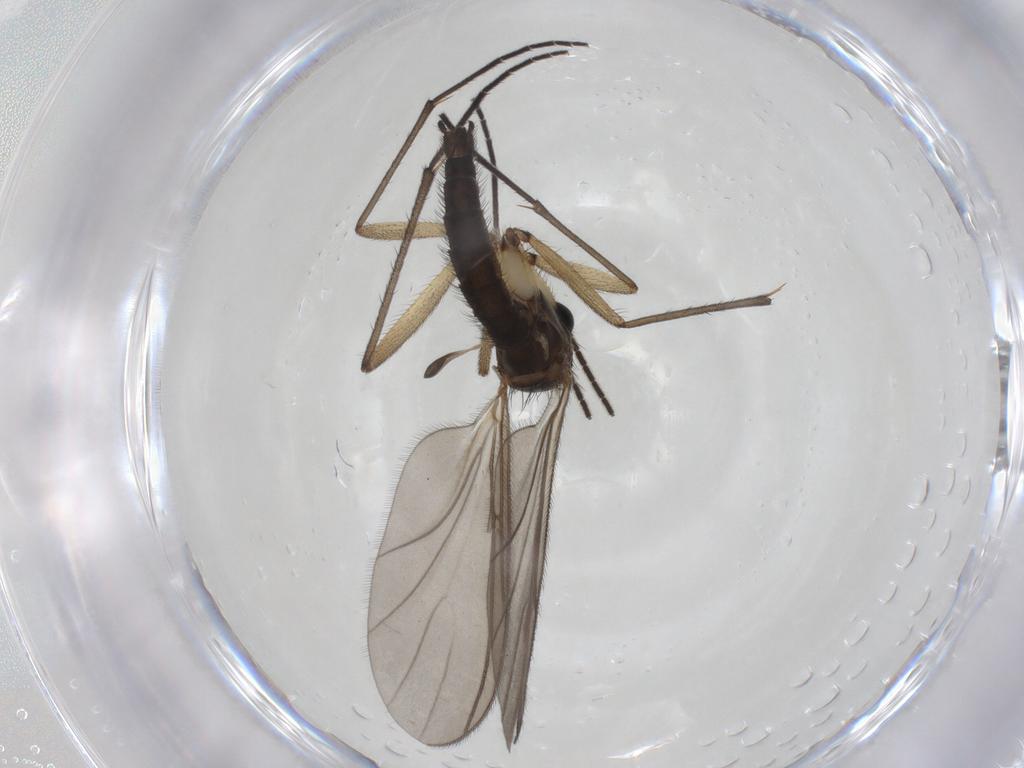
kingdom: Animalia
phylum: Arthropoda
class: Insecta
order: Diptera
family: Sciaridae
